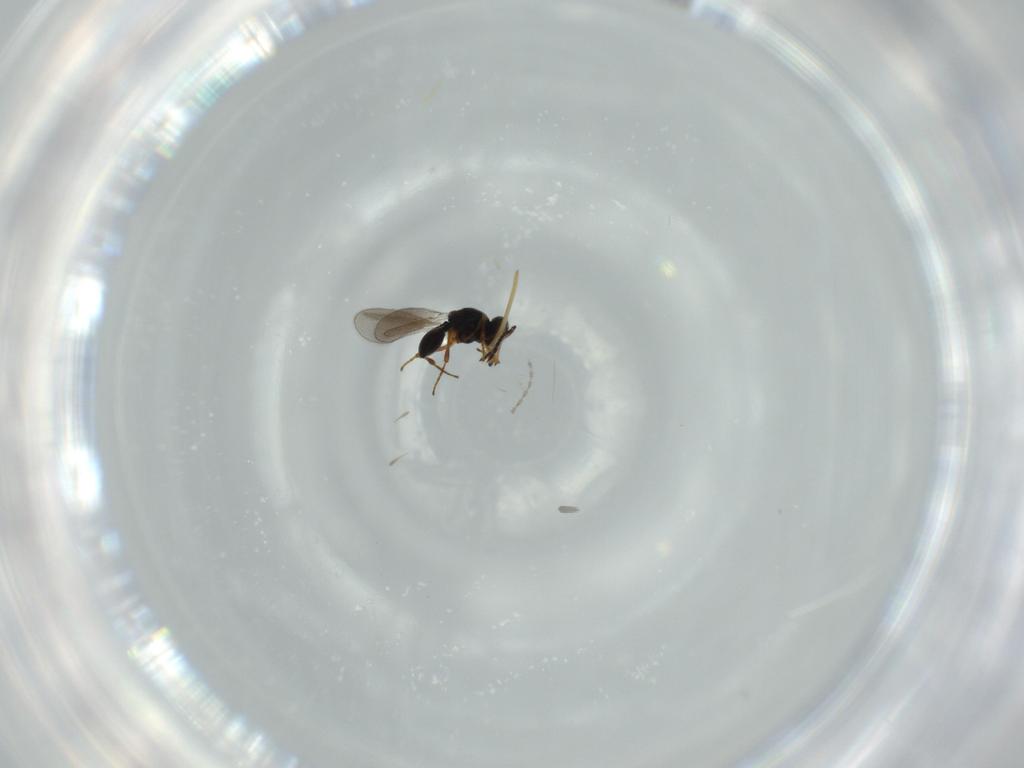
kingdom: Animalia
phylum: Arthropoda
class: Insecta
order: Hymenoptera
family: Platygastridae
